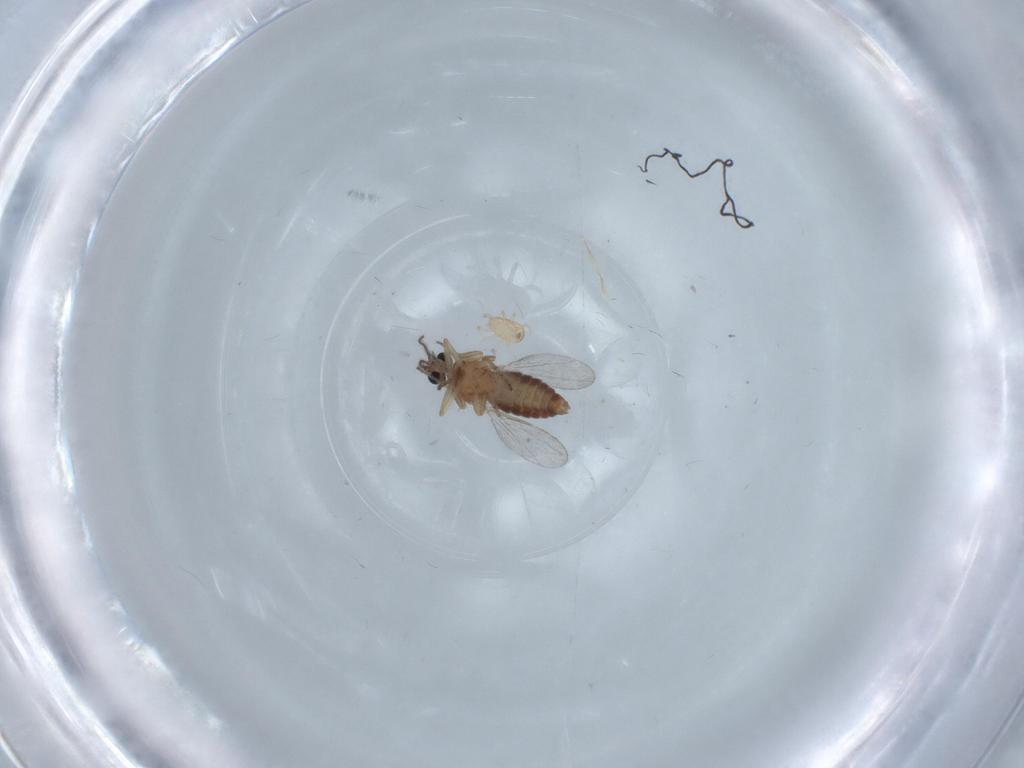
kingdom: Animalia
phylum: Arthropoda
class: Insecta
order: Diptera
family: Ceratopogonidae
